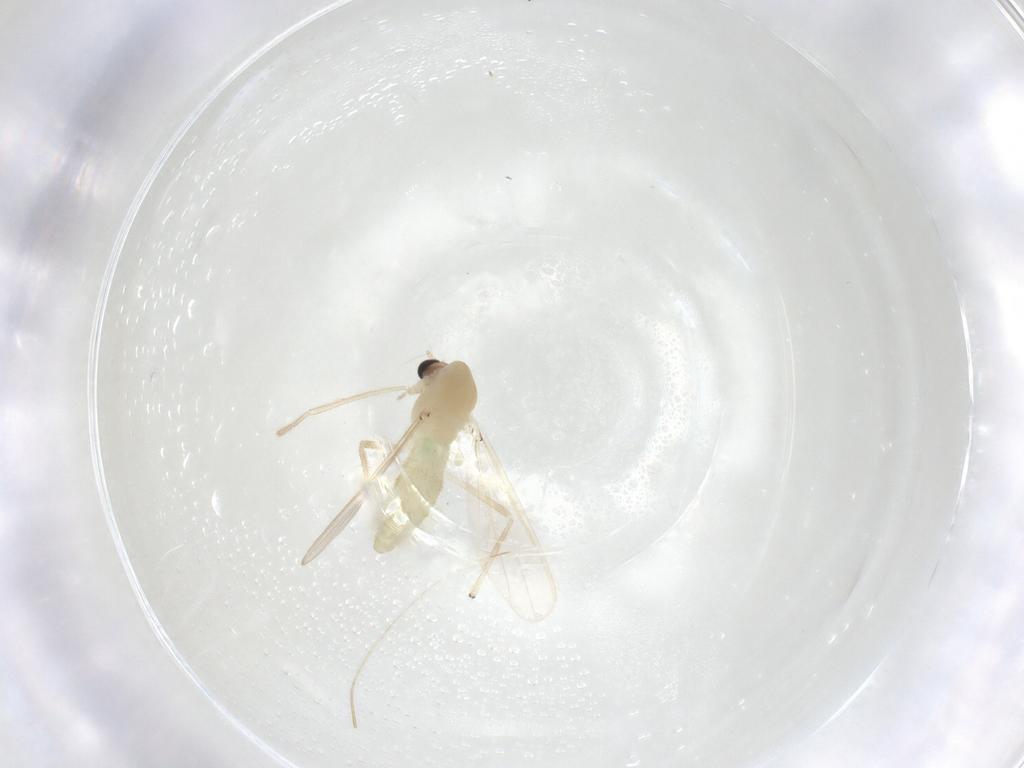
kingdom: Animalia
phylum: Arthropoda
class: Insecta
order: Diptera
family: Chironomidae
